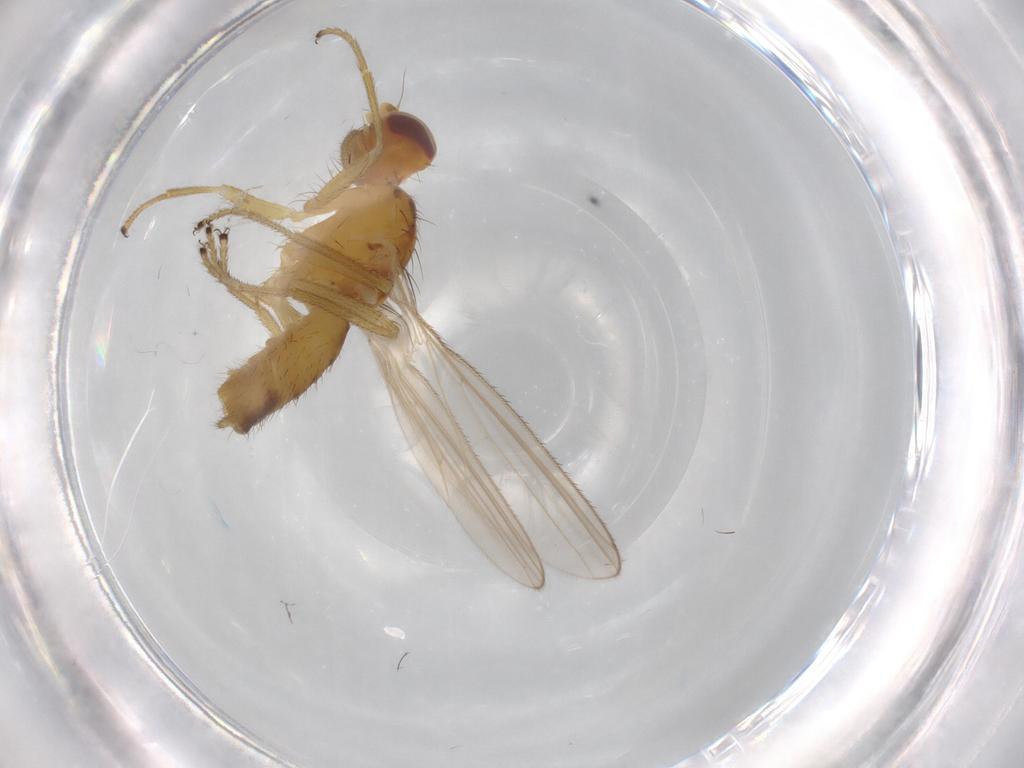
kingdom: Animalia
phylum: Arthropoda
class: Insecta
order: Diptera
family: Anthomyzidae
